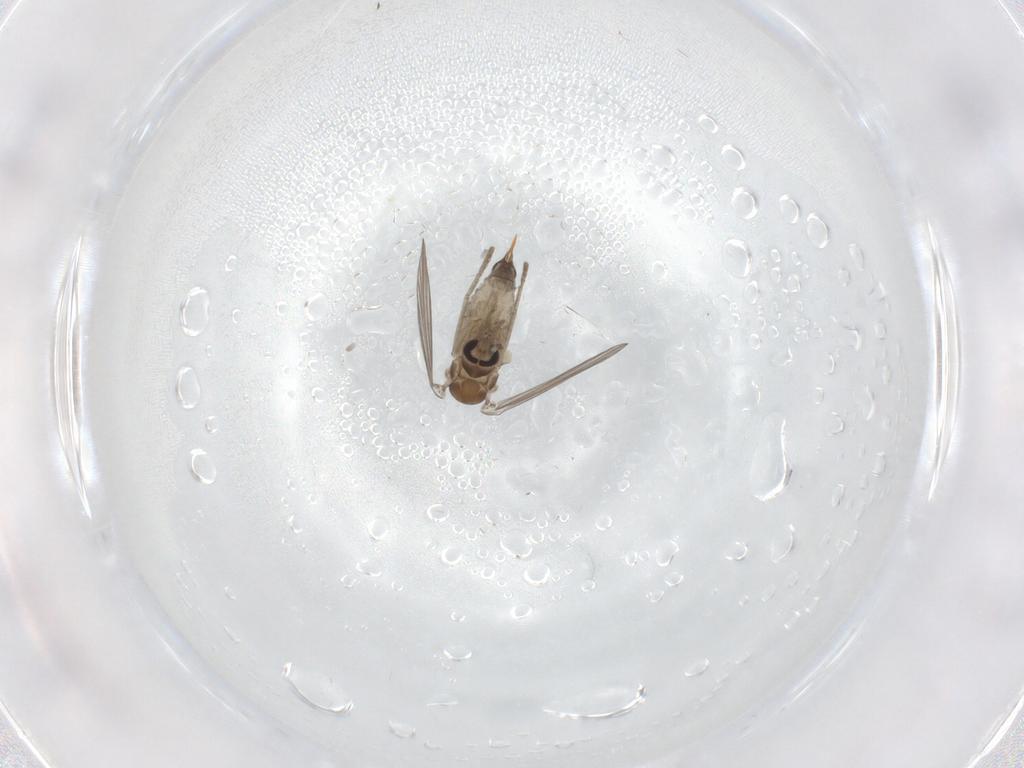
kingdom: Animalia
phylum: Arthropoda
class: Insecta
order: Diptera
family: Psychodidae
